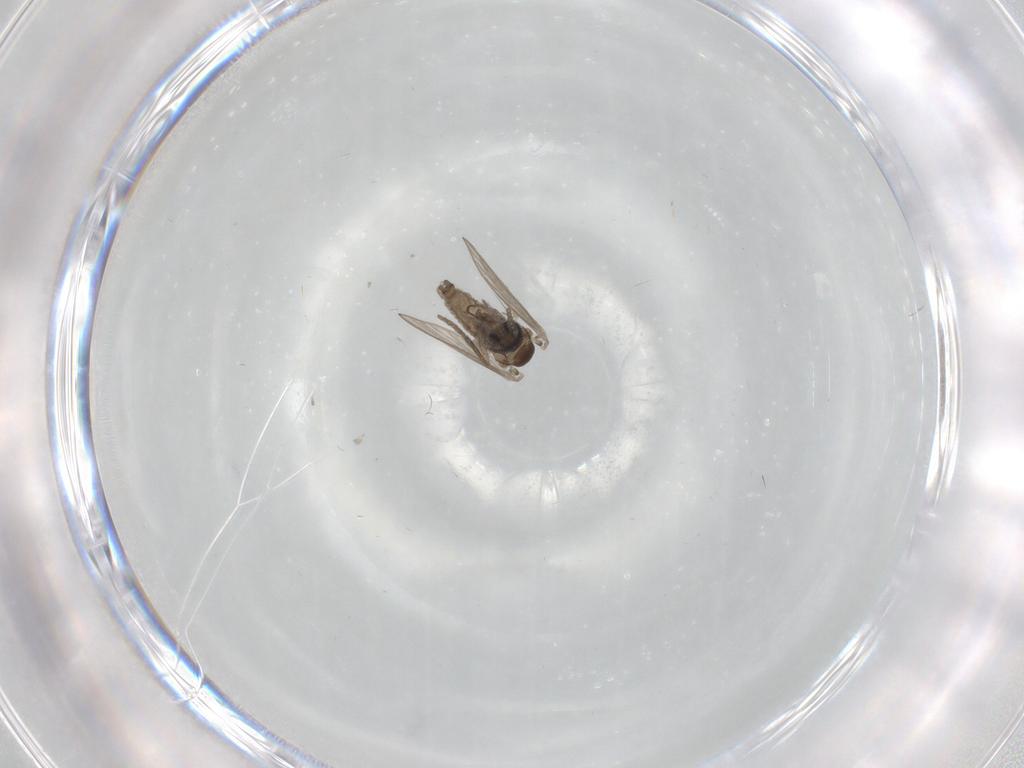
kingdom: Animalia
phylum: Arthropoda
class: Insecta
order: Diptera
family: Psychodidae
